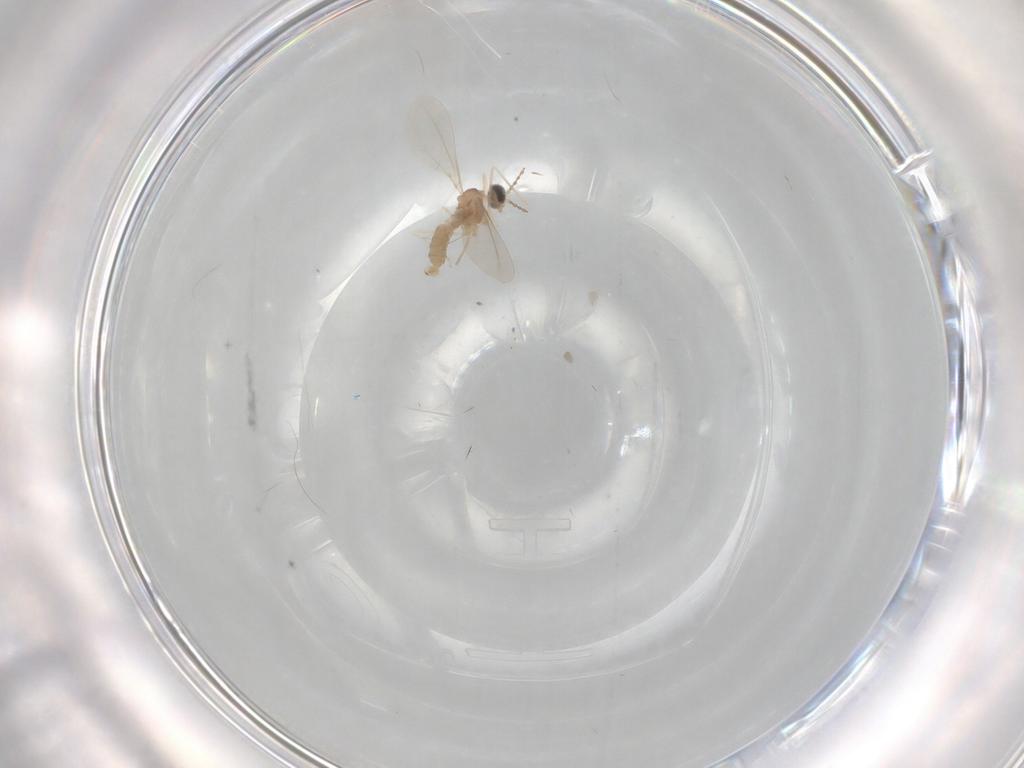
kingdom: Animalia
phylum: Arthropoda
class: Insecta
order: Diptera
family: Cecidomyiidae
